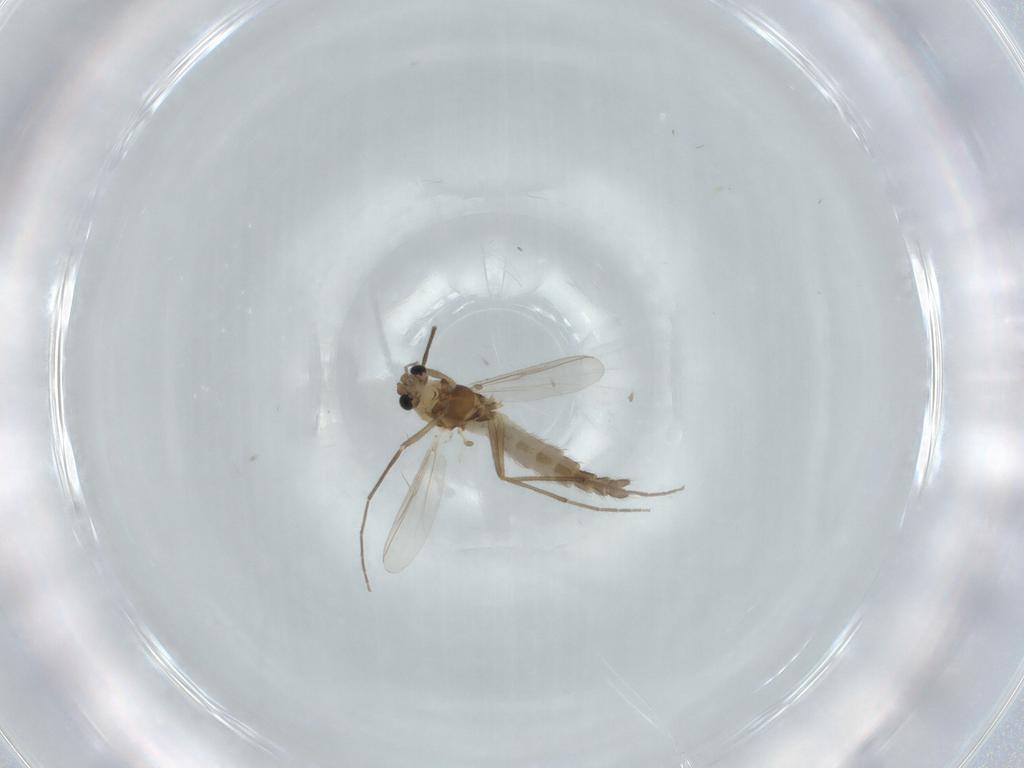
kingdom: Animalia
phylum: Arthropoda
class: Insecta
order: Diptera
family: Chironomidae
